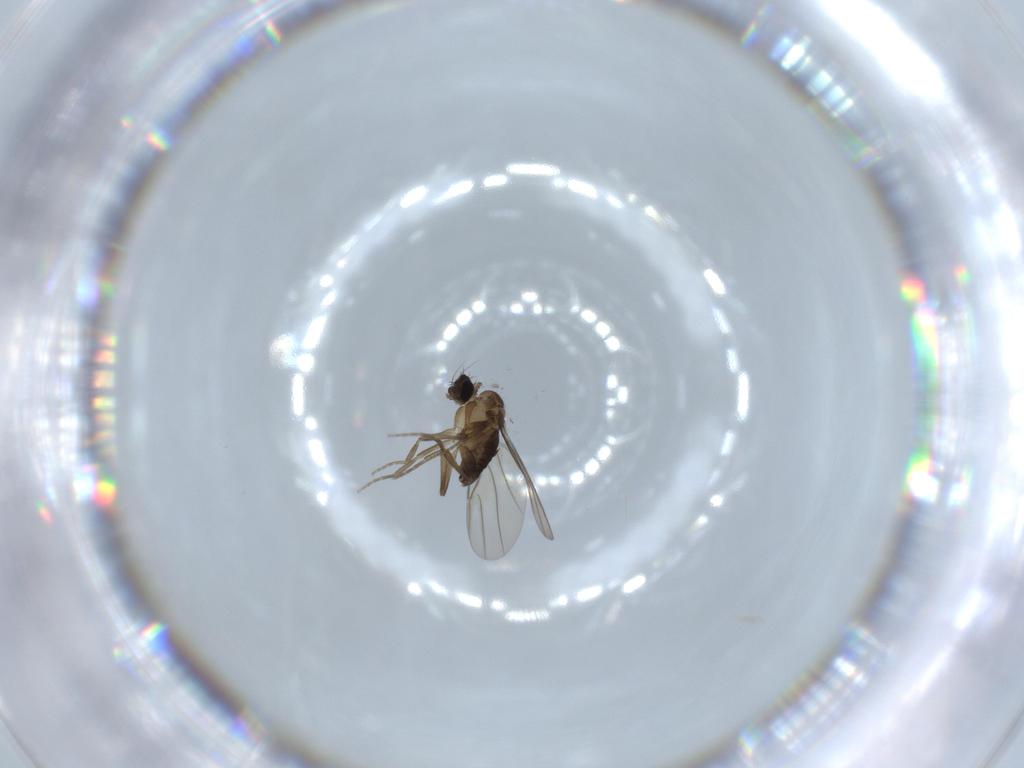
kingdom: Animalia
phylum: Arthropoda
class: Insecta
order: Diptera
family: Phoridae
